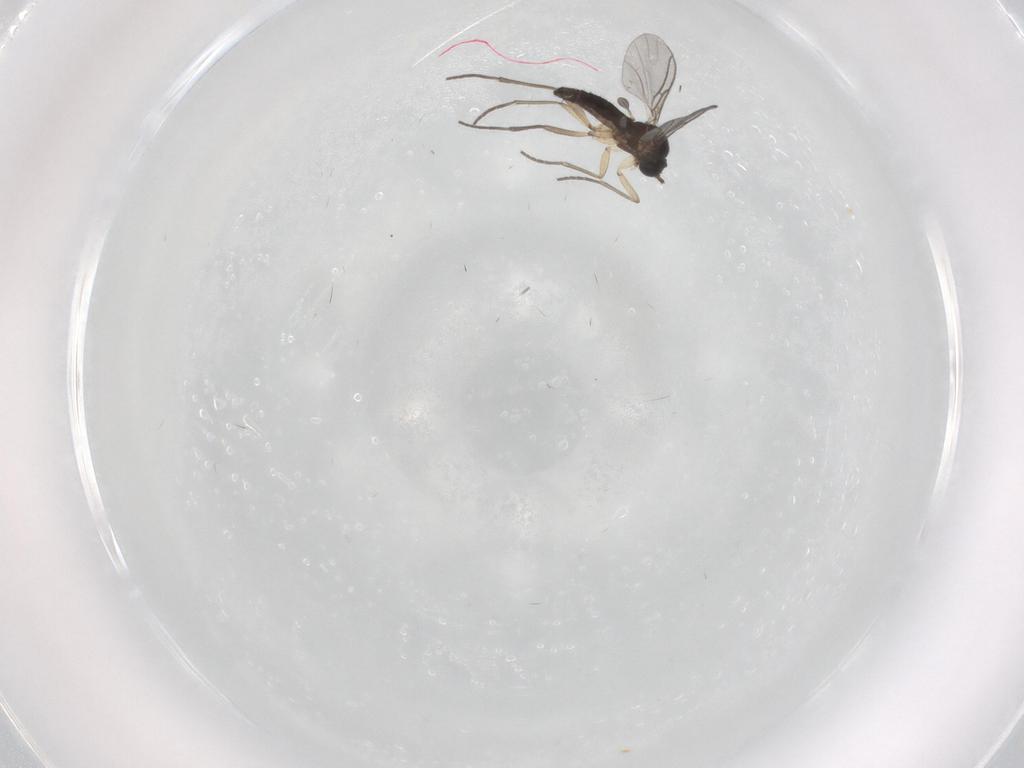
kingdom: Animalia
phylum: Arthropoda
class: Insecta
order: Diptera
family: Sciaridae
